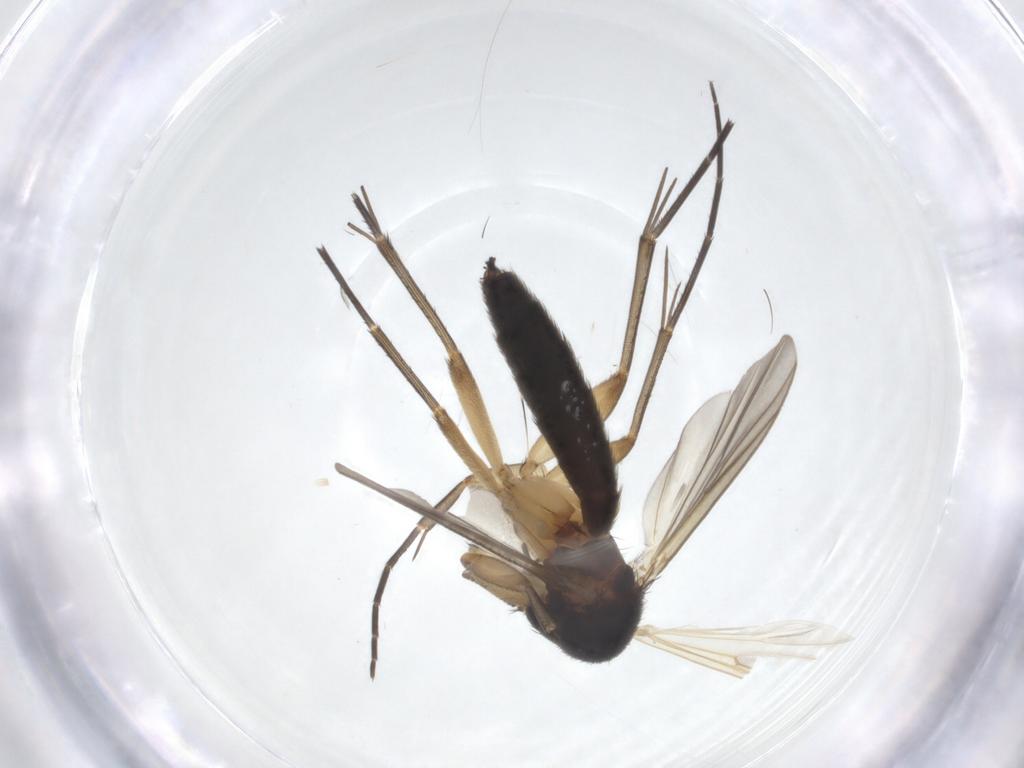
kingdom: Animalia
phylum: Arthropoda
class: Insecta
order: Diptera
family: Mycetophilidae
